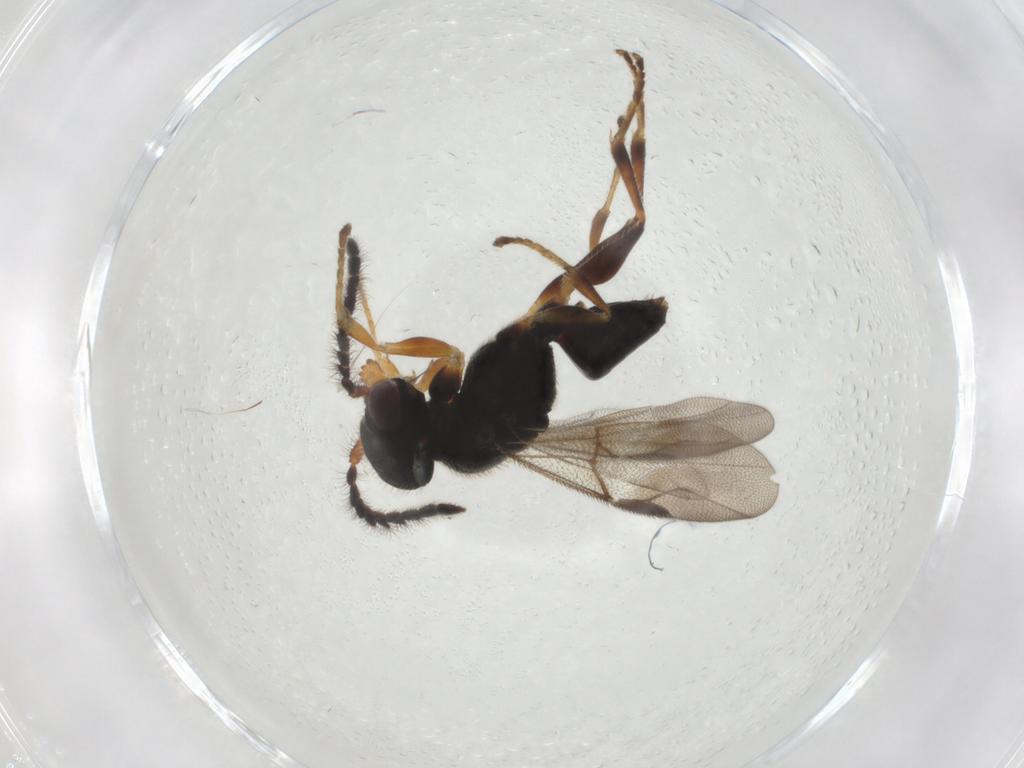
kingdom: Animalia
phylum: Arthropoda
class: Insecta
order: Hymenoptera
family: Dryinidae
